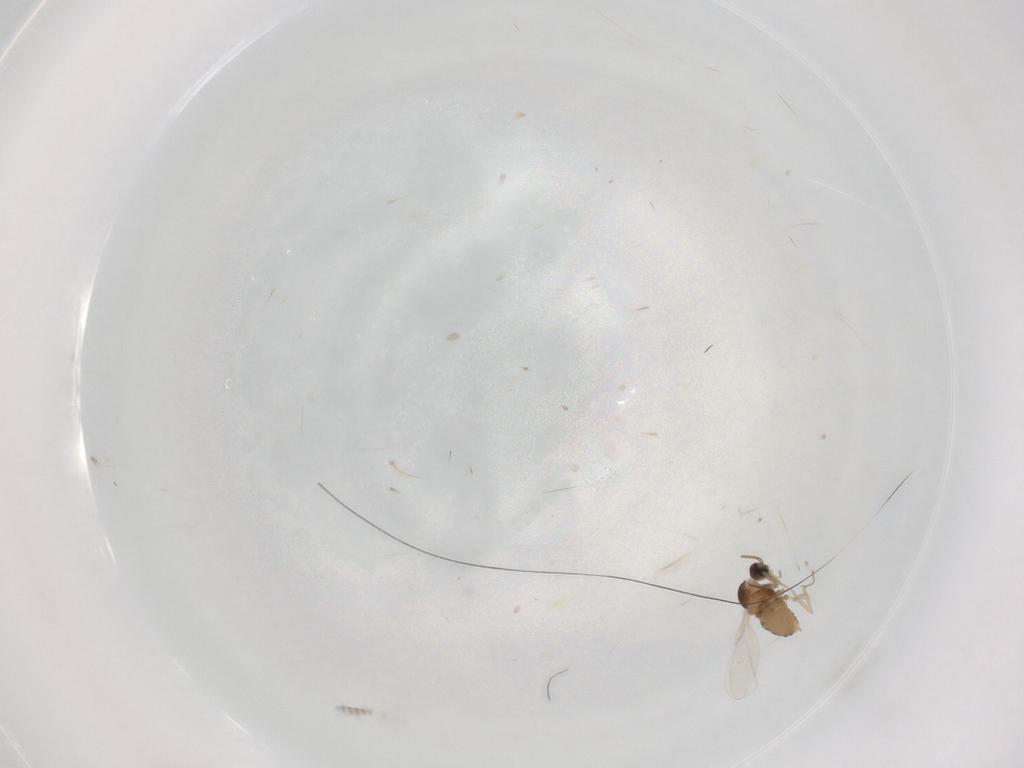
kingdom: Animalia
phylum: Arthropoda
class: Insecta
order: Diptera
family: Cecidomyiidae
